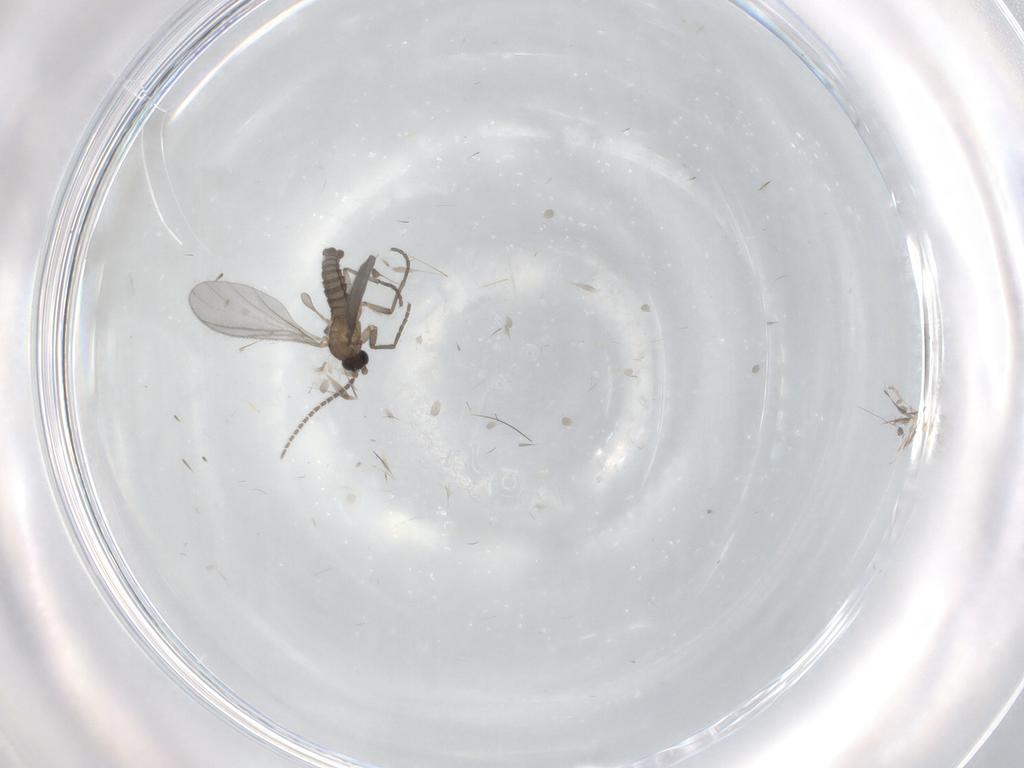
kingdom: Animalia
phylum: Arthropoda
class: Insecta
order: Diptera
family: Sciaridae
